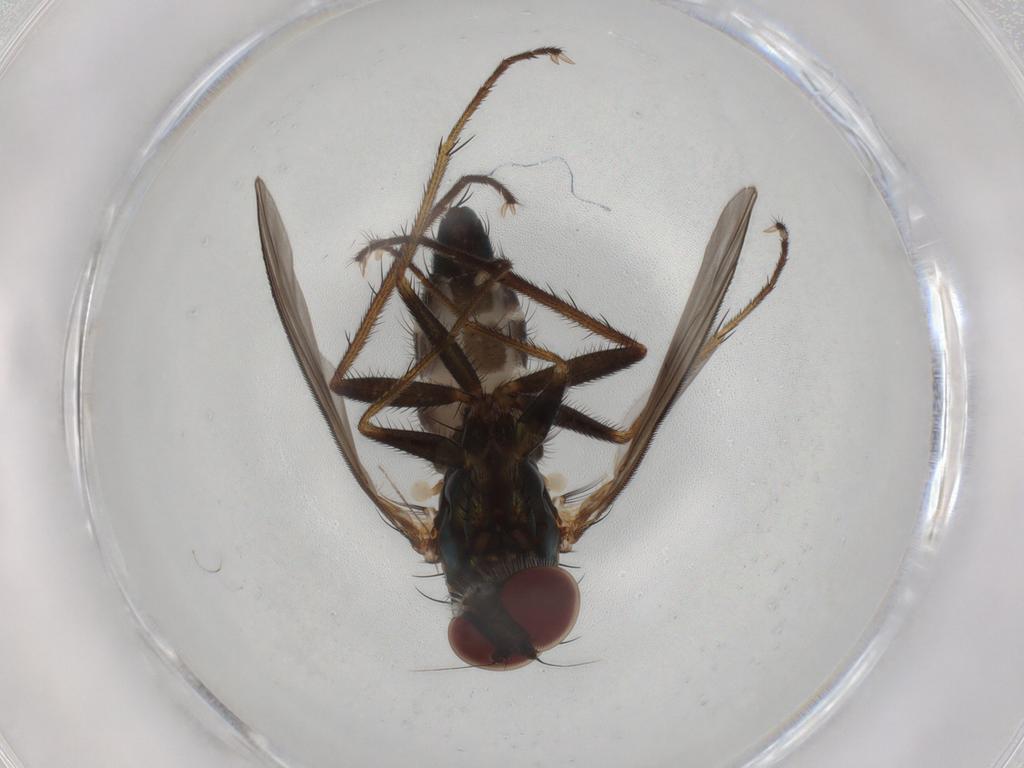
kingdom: Animalia
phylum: Arthropoda
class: Insecta
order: Diptera
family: Dolichopodidae
